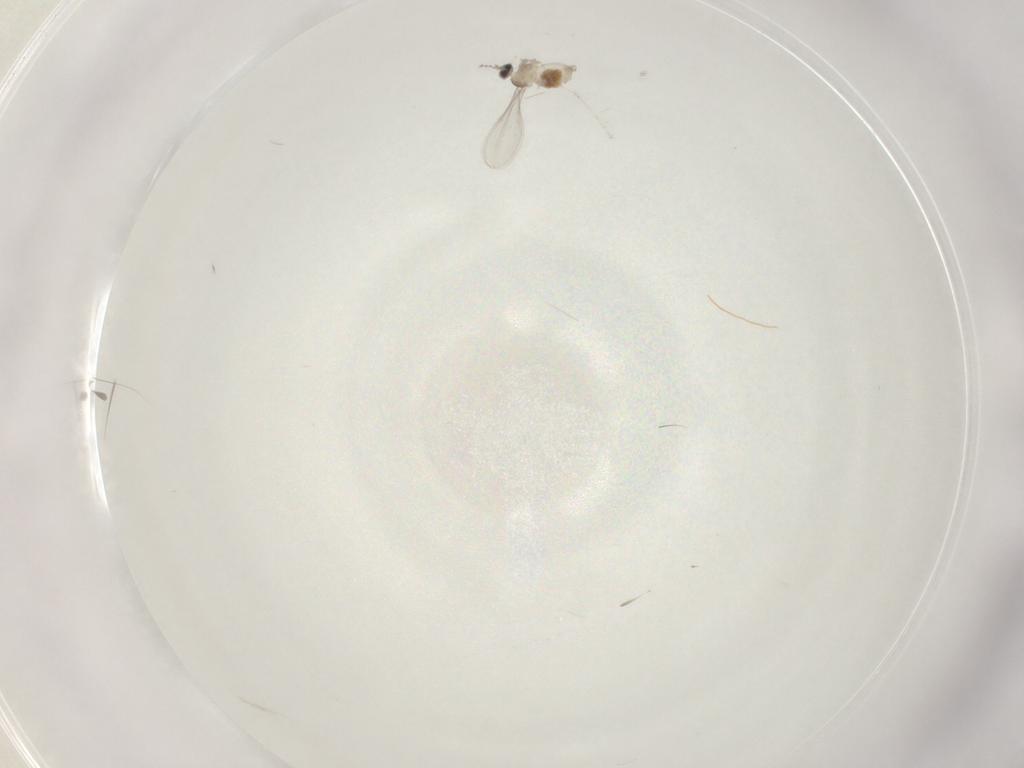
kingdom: Animalia
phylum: Arthropoda
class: Insecta
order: Diptera
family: Cecidomyiidae
